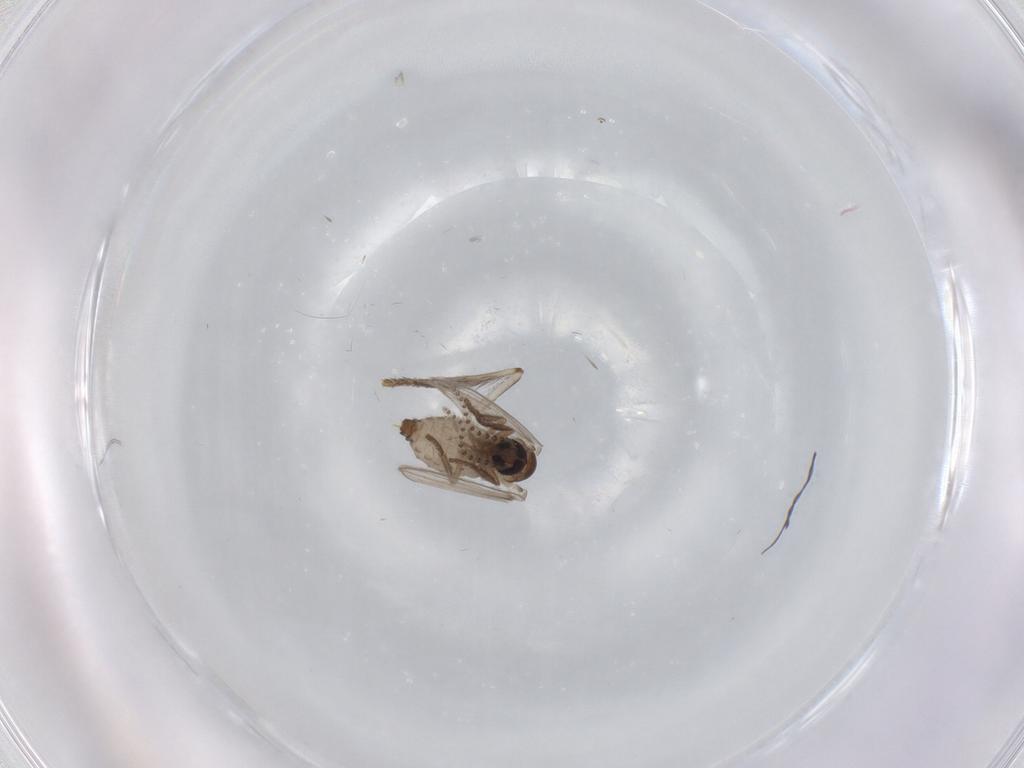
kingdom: Animalia
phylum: Arthropoda
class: Insecta
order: Diptera
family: Psychodidae
